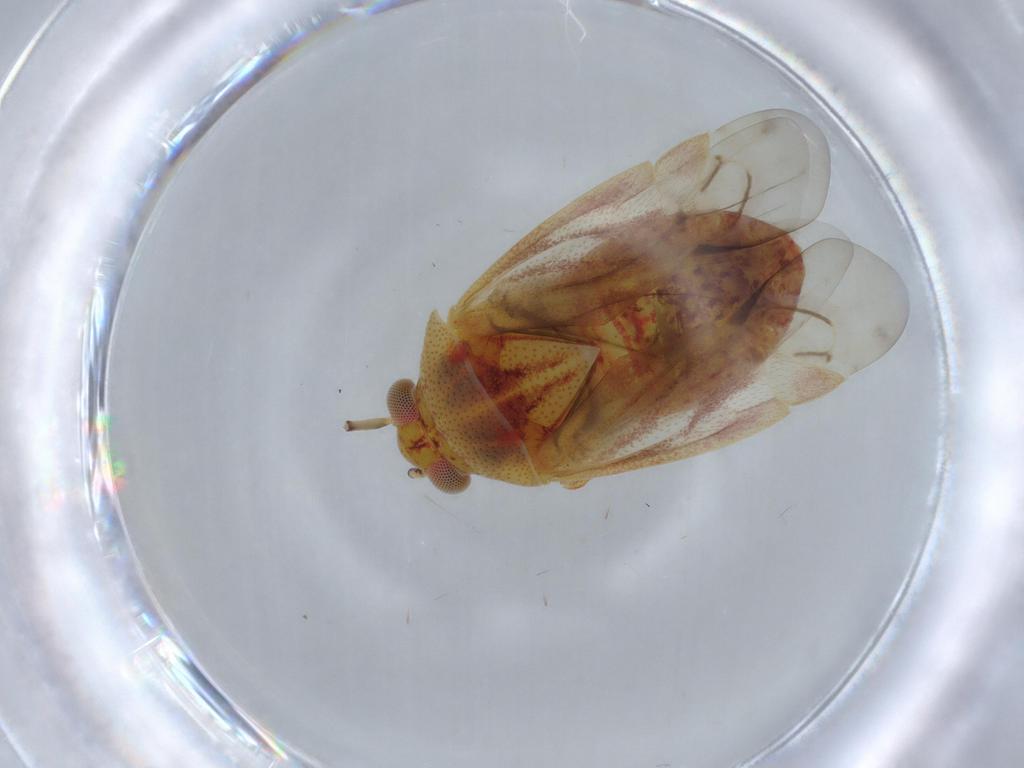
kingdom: Animalia
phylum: Arthropoda
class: Insecta
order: Hemiptera
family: Miridae
